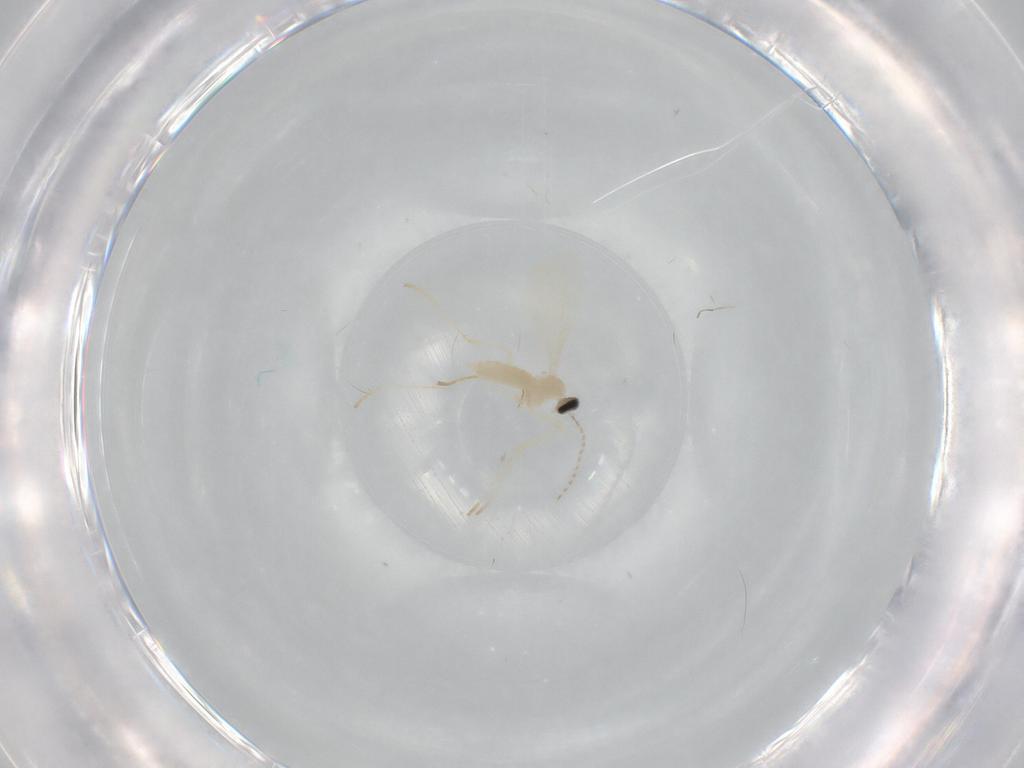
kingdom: Animalia
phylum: Arthropoda
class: Insecta
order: Diptera
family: Cecidomyiidae
